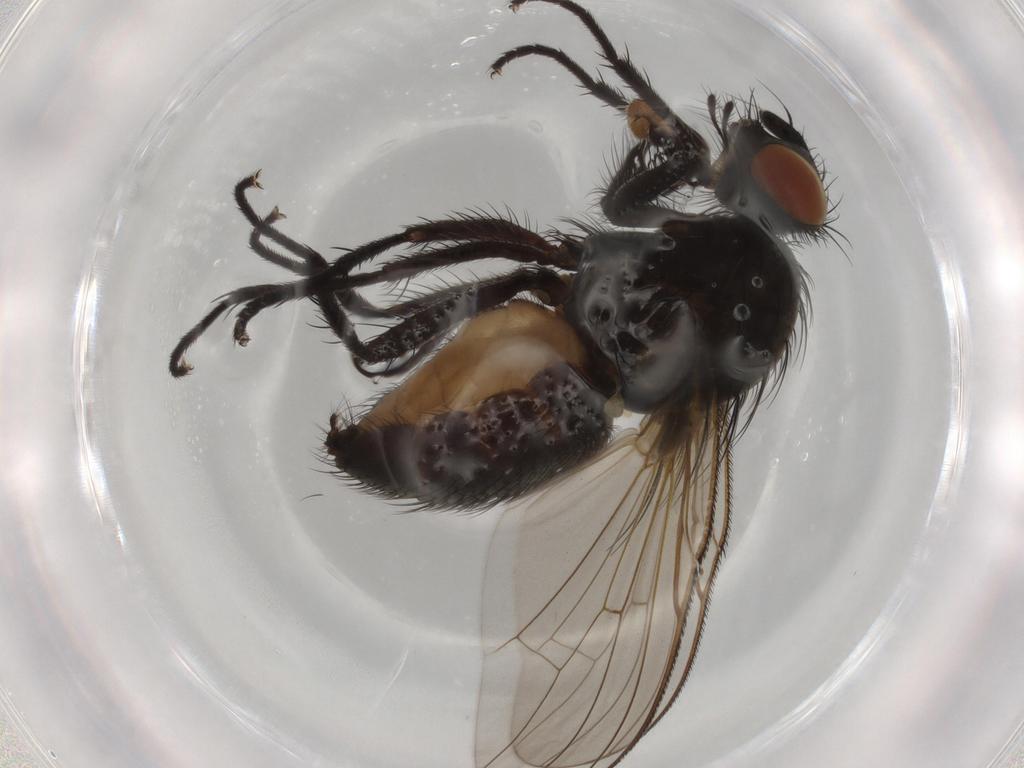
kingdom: Animalia
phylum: Arthropoda
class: Insecta
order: Diptera
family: Anthomyiidae
